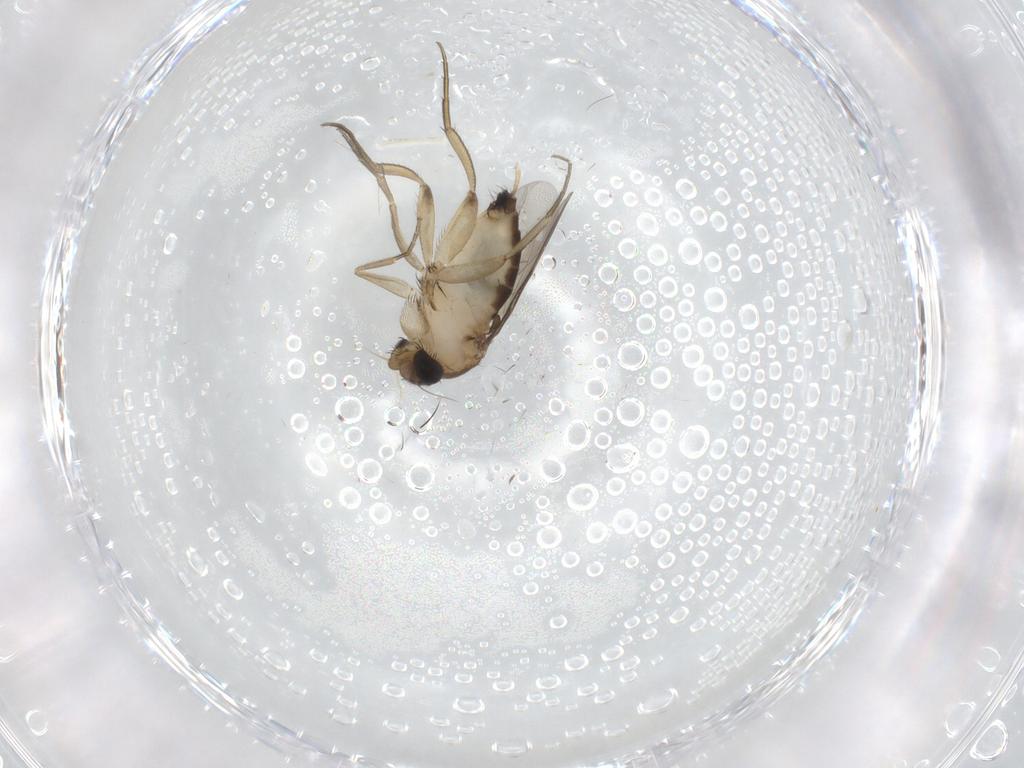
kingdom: Animalia
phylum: Arthropoda
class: Insecta
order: Diptera
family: Phoridae
